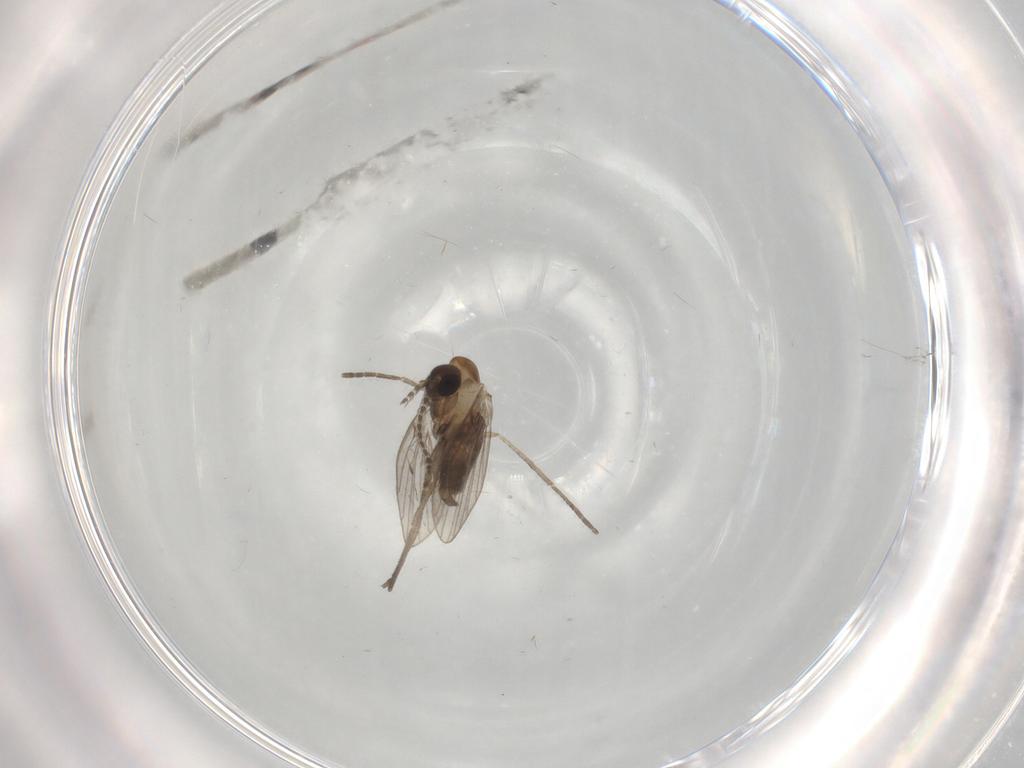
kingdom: Animalia
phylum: Arthropoda
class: Insecta
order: Diptera
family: Psychodidae
